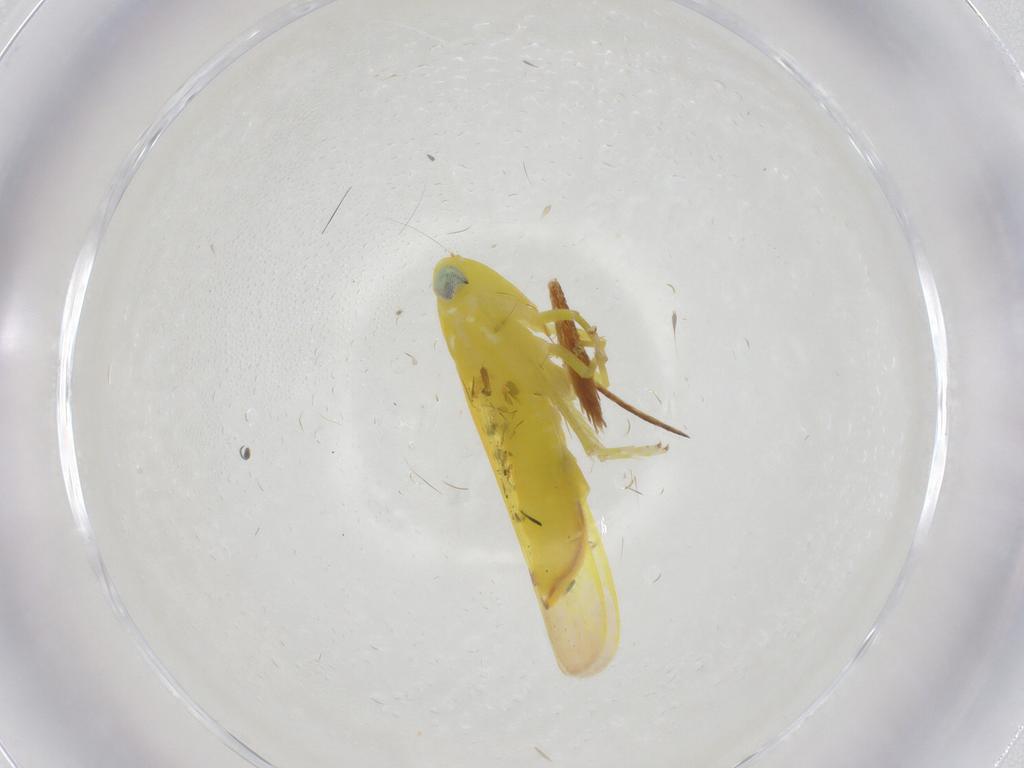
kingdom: Animalia
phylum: Arthropoda
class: Insecta
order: Hemiptera
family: Cicadellidae
